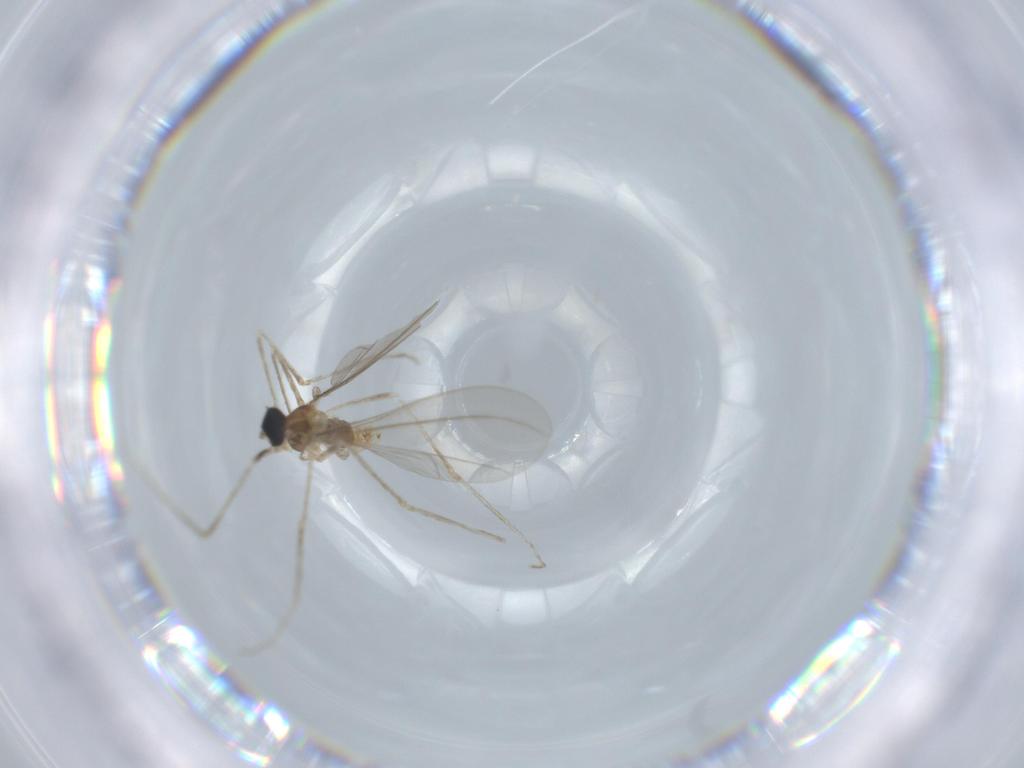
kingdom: Animalia
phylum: Arthropoda
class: Insecta
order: Diptera
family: Cecidomyiidae
